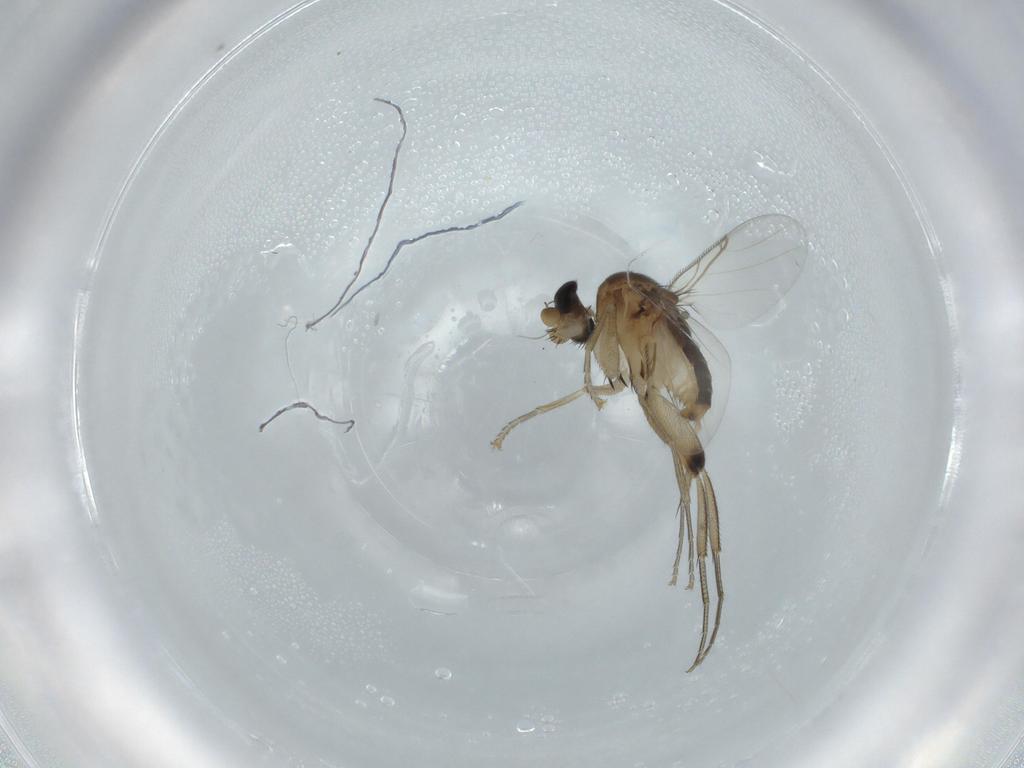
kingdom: Animalia
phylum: Arthropoda
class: Insecta
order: Diptera
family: Phoridae
